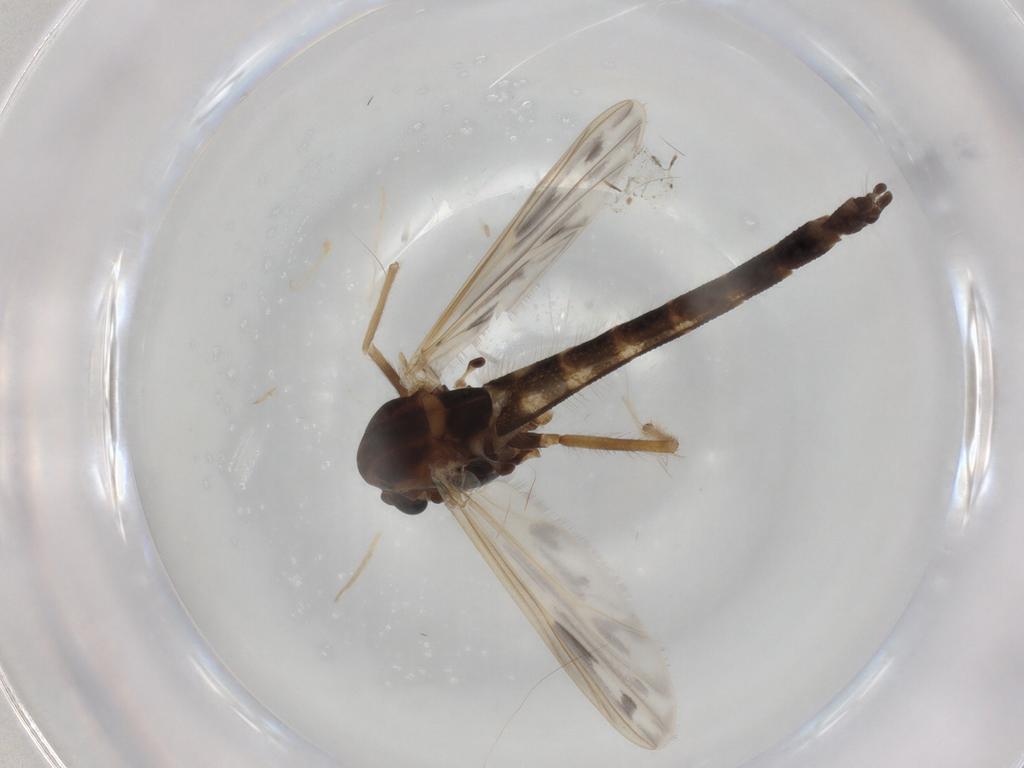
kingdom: Animalia
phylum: Arthropoda
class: Insecta
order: Diptera
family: Chironomidae
